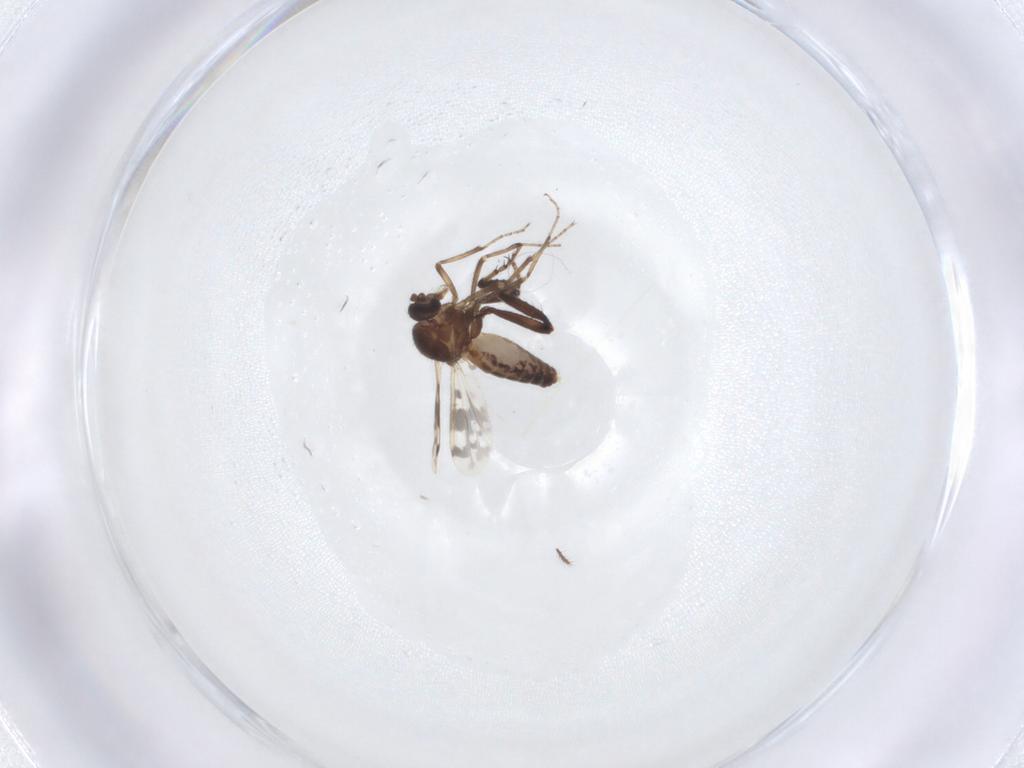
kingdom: Animalia
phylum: Arthropoda
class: Insecta
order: Diptera
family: Ceratopogonidae
